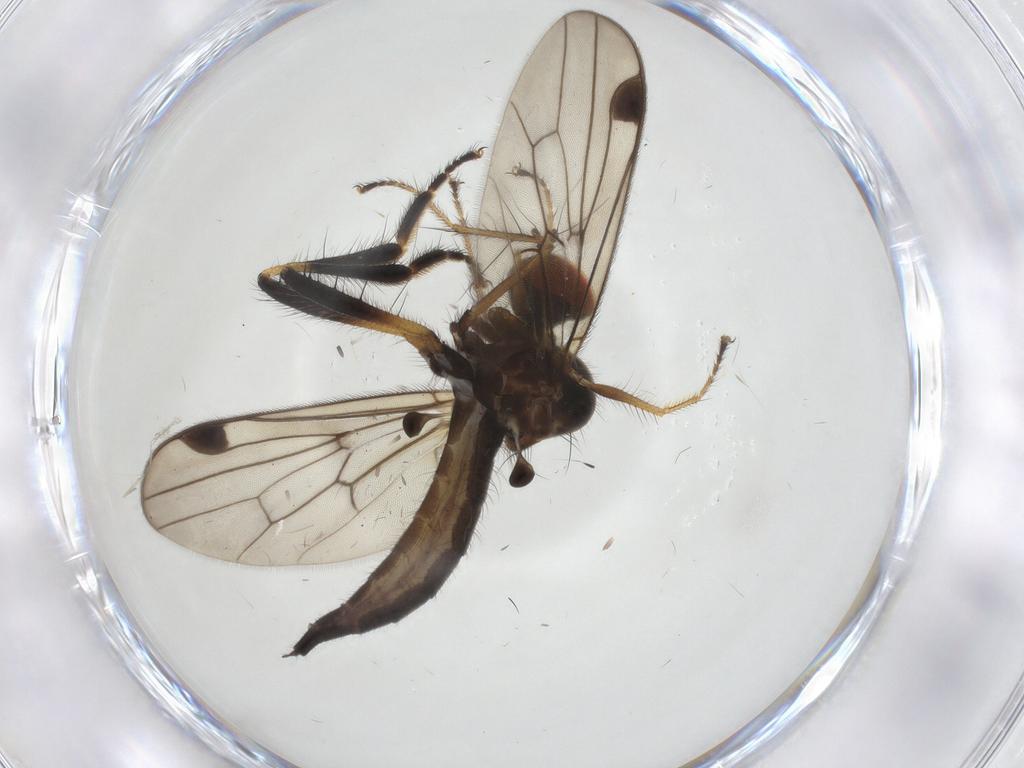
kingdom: Animalia
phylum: Arthropoda
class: Insecta
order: Diptera
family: Hybotidae
